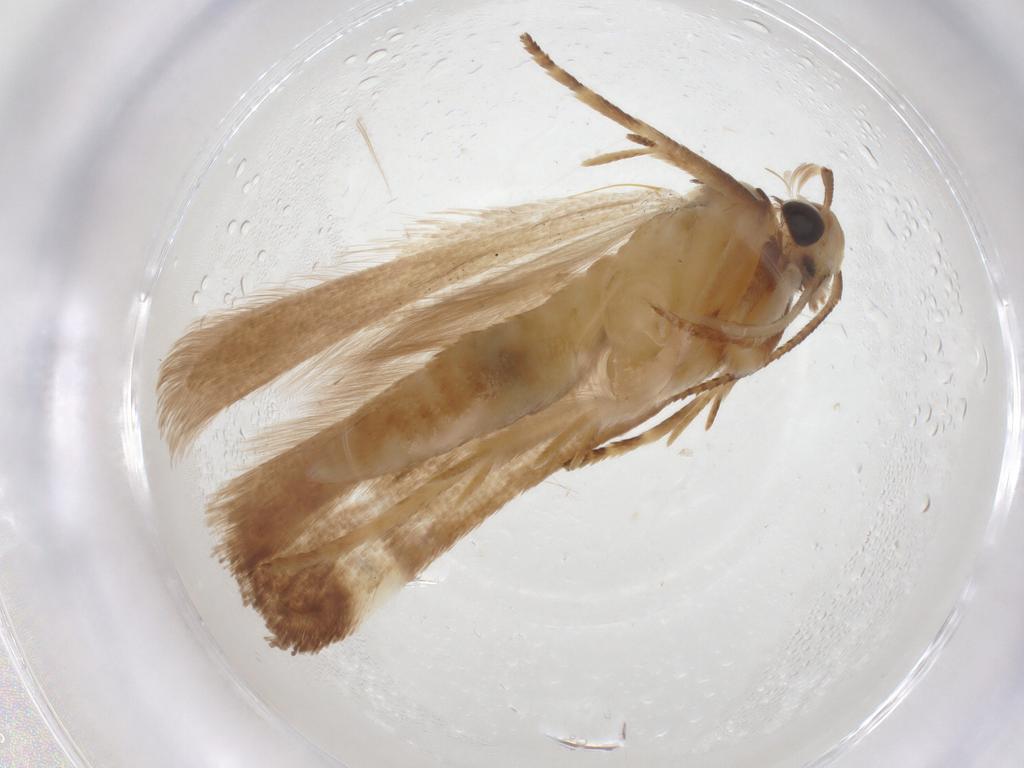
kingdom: Animalia
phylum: Arthropoda
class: Insecta
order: Lepidoptera
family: Gelechiidae
